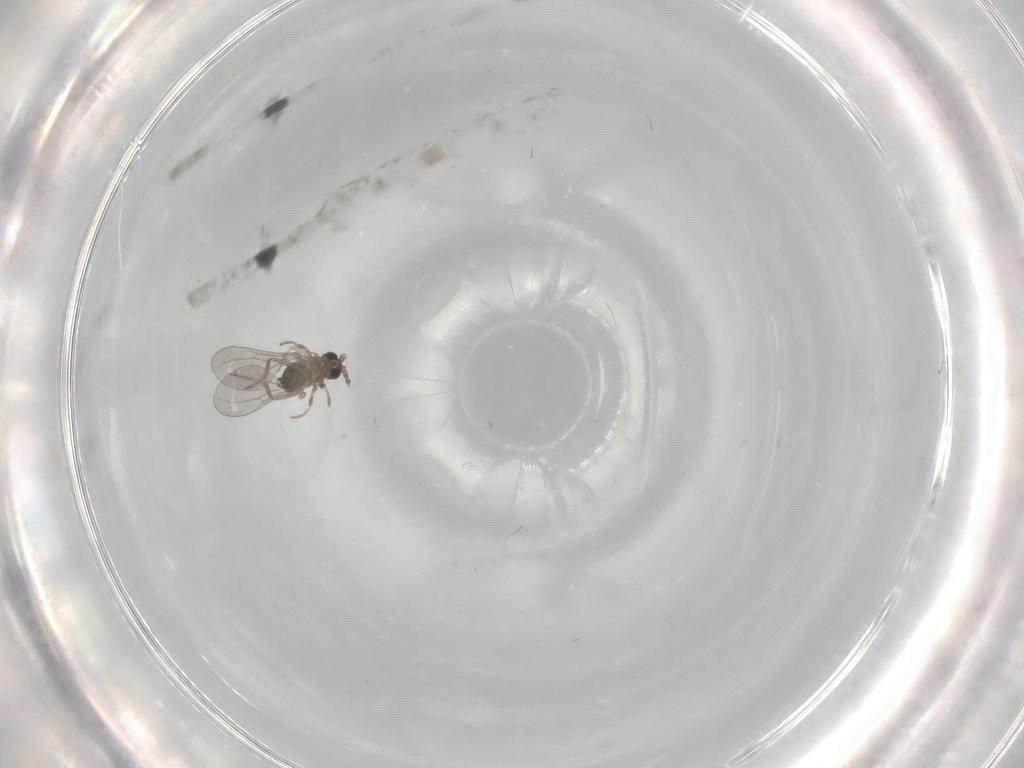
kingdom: Animalia
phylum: Arthropoda
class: Insecta
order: Diptera
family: Cecidomyiidae
